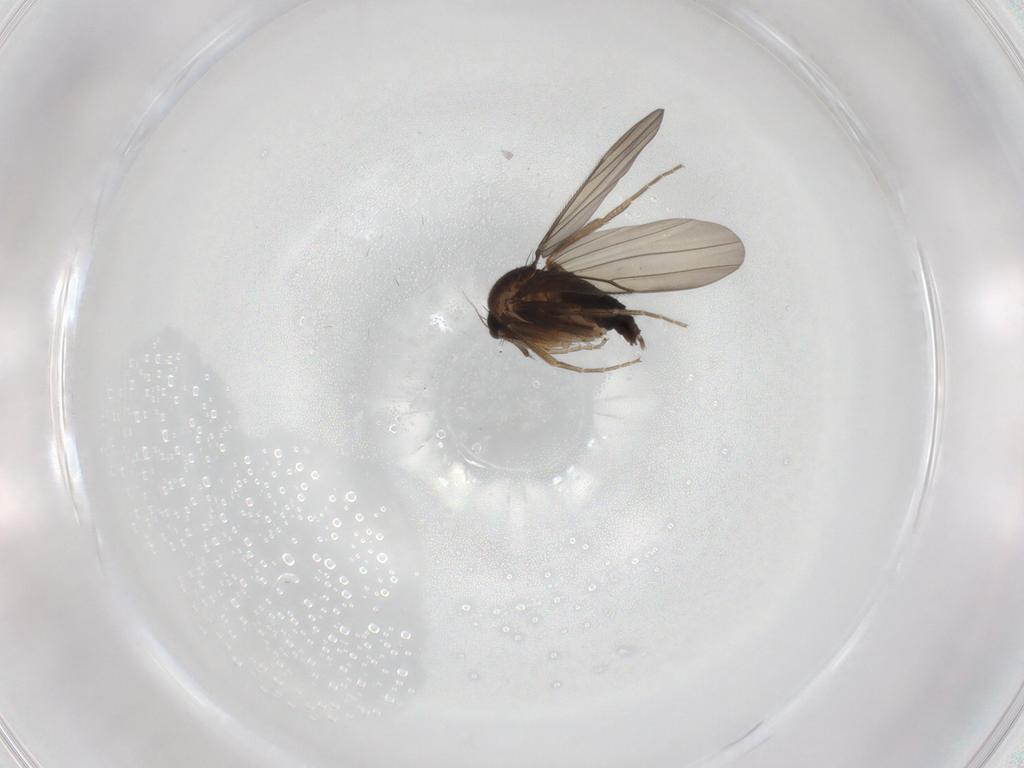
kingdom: Animalia
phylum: Arthropoda
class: Insecta
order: Diptera
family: Phoridae
